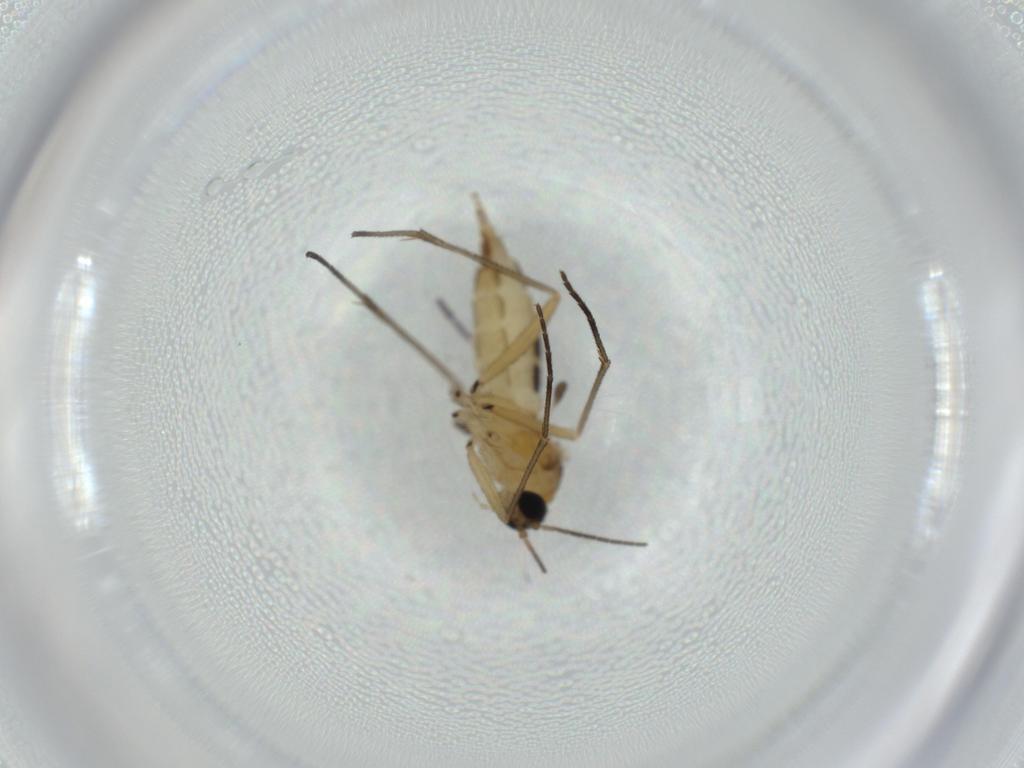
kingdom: Animalia
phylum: Arthropoda
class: Insecta
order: Diptera
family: Sciaridae
